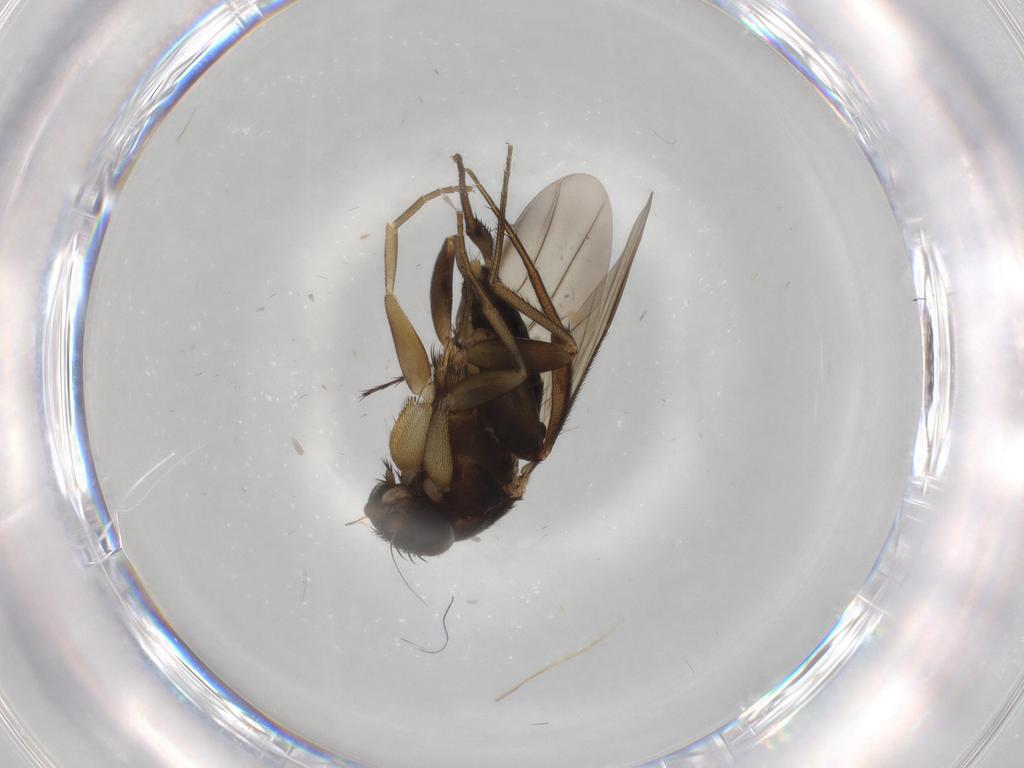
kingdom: Animalia
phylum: Arthropoda
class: Insecta
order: Diptera
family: Phoridae
